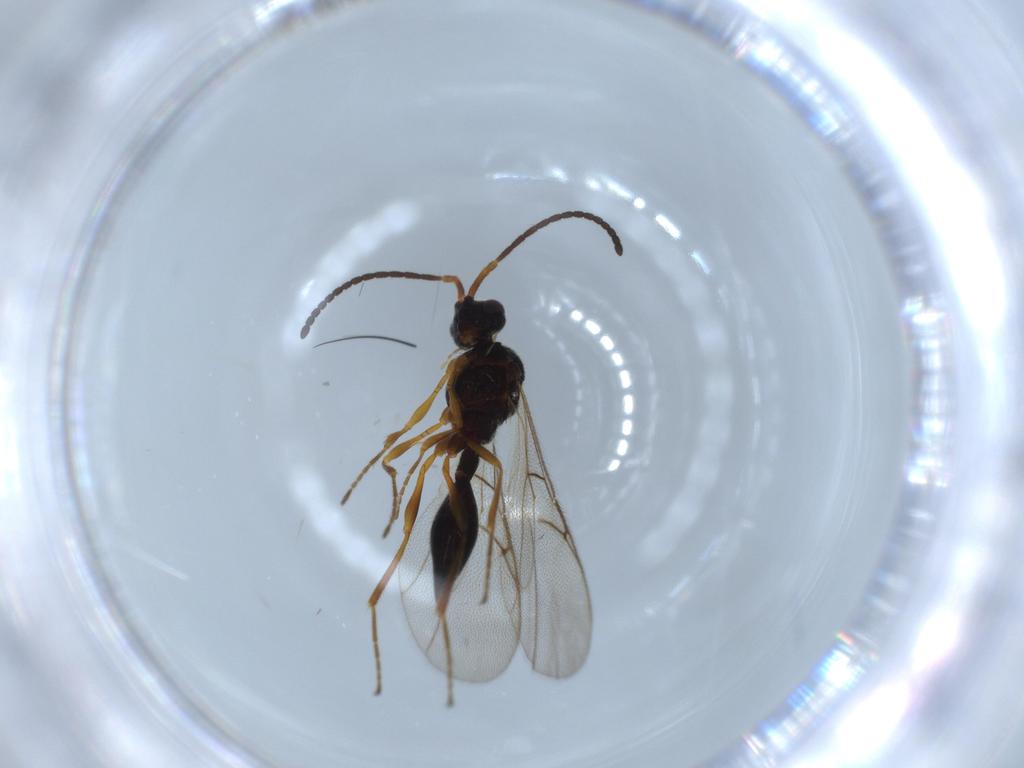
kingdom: Animalia
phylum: Arthropoda
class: Insecta
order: Hymenoptera
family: Diapriidae
